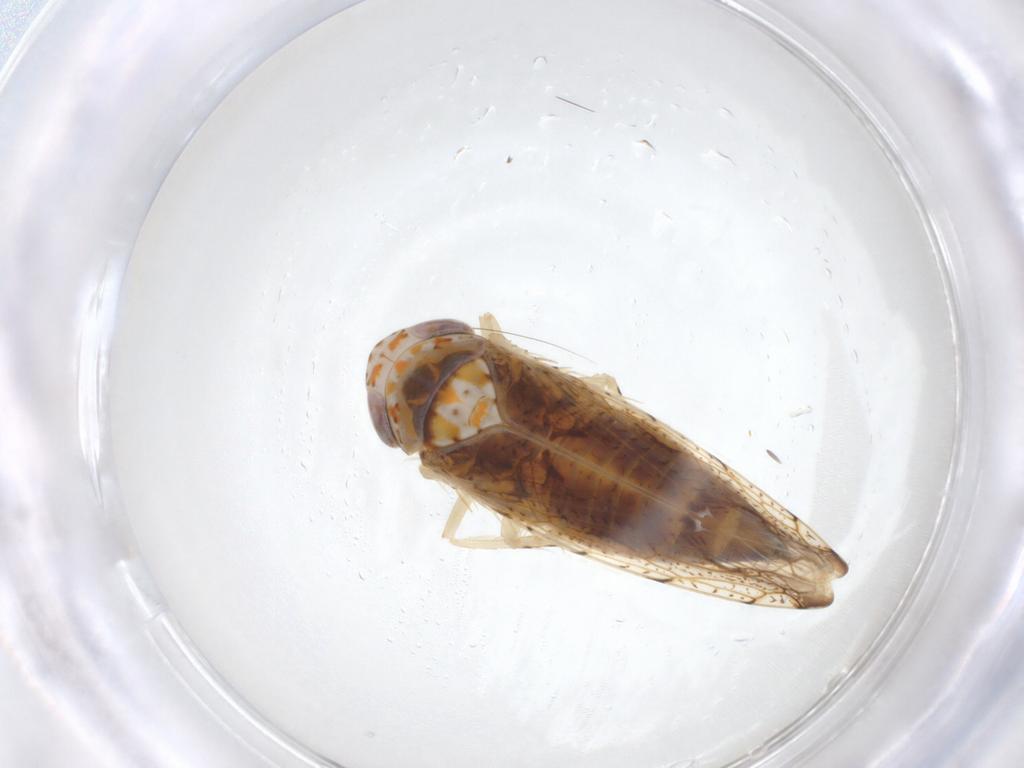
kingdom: Animalia
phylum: Arthropoda
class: Insecta
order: Hemiptera
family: Cicadellidae
